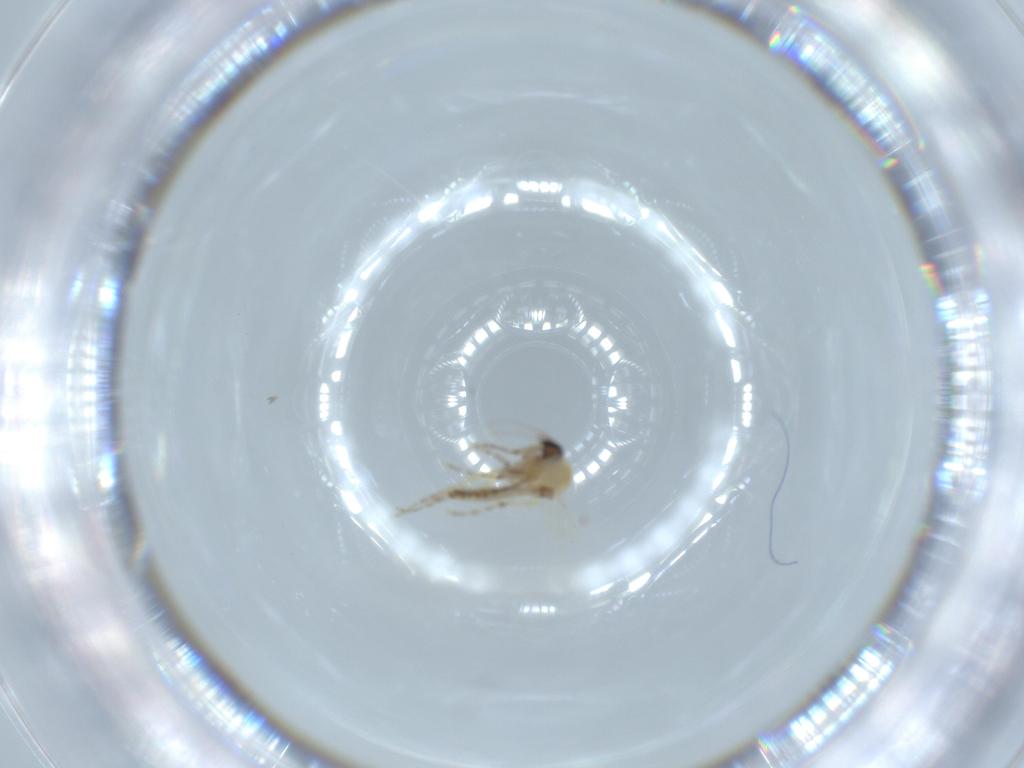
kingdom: Animalia
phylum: Arthropoda
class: Insecta
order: Diptera
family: Ceratopogonidae
